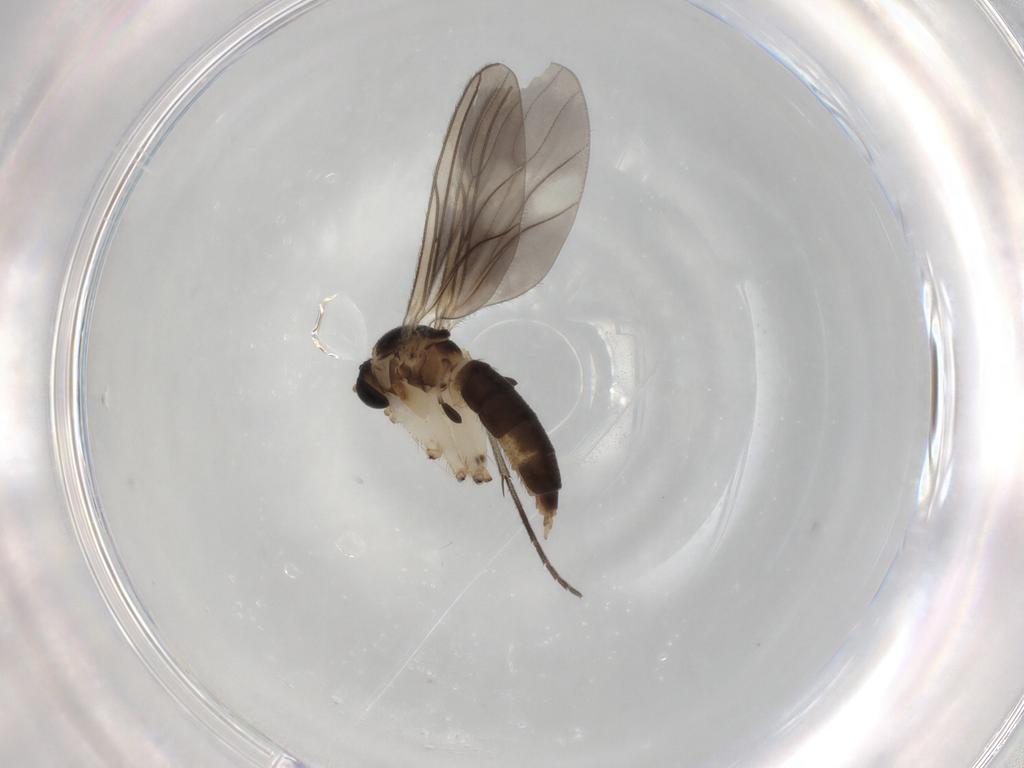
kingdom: Animalia
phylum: Arthropoda
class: Insecta
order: Diptera
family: Sciaridae
